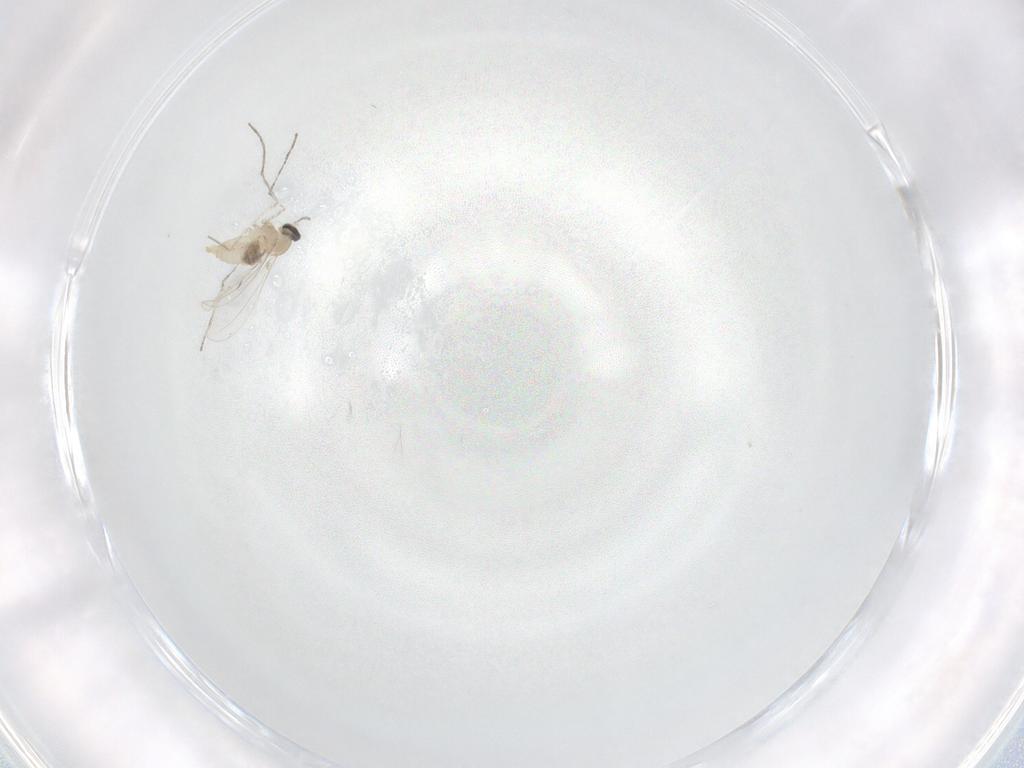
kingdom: Animalia
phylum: Arthropoda
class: Insecta
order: Diptera
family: Cecidomyiidae
